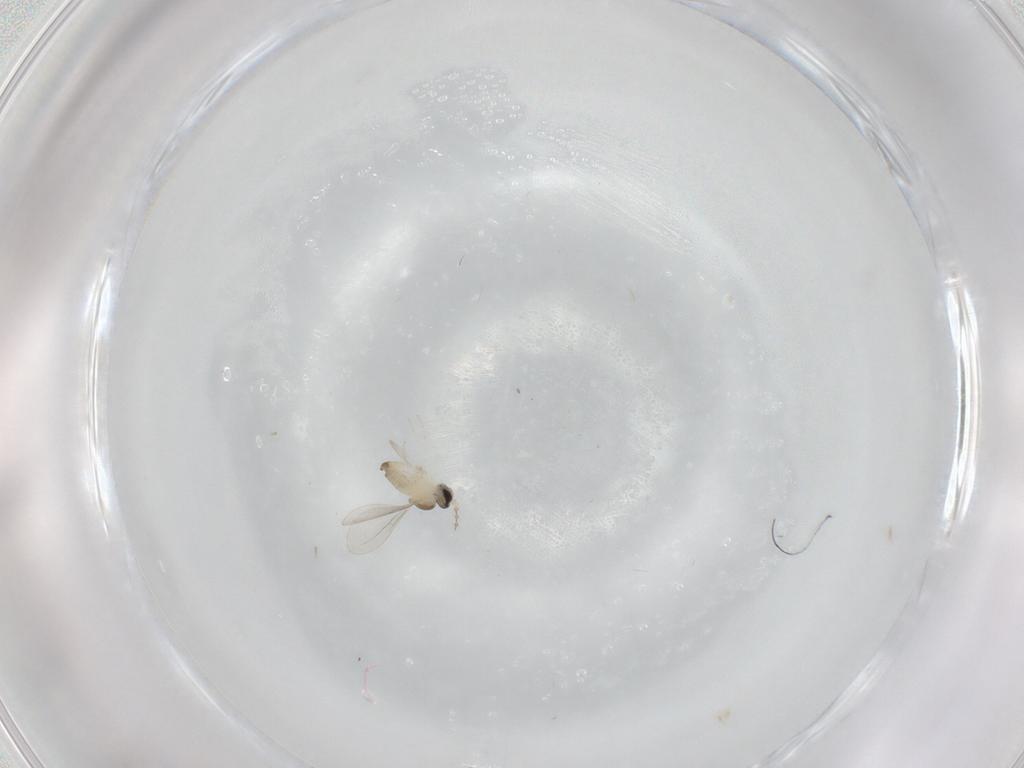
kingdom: Animalia
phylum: Arthropoda
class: Insecta
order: Diptera
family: Cecidomyiidae
